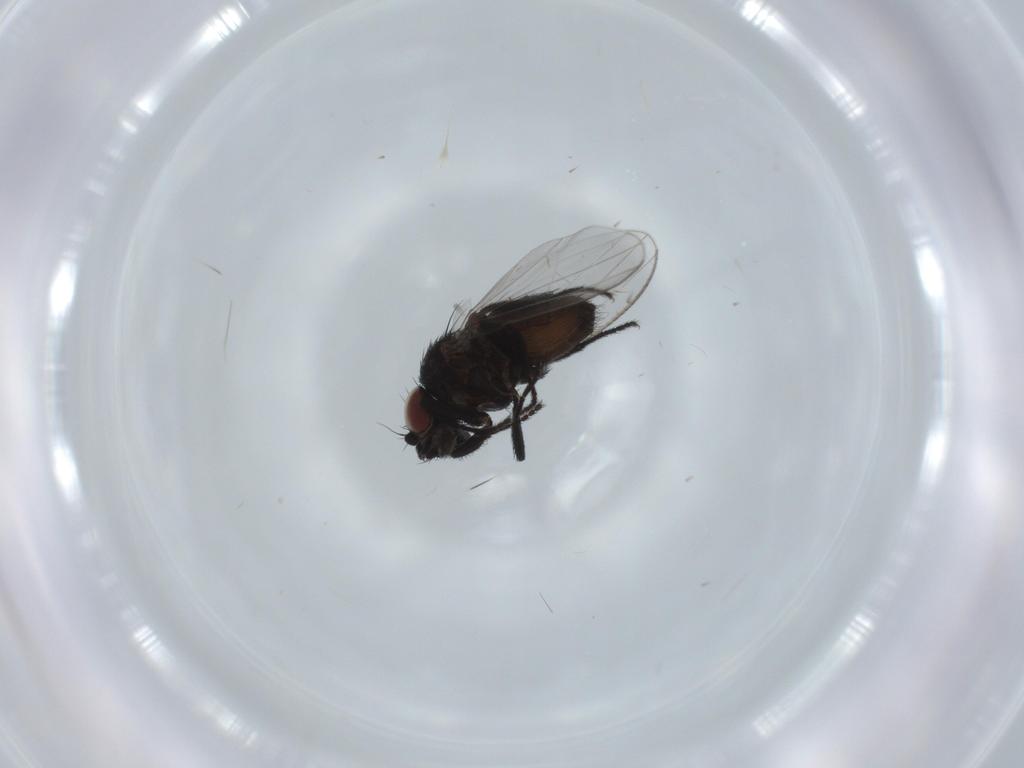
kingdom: Animalia
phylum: Arthropoda
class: Insecta
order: Diptera
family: Milichiidae
